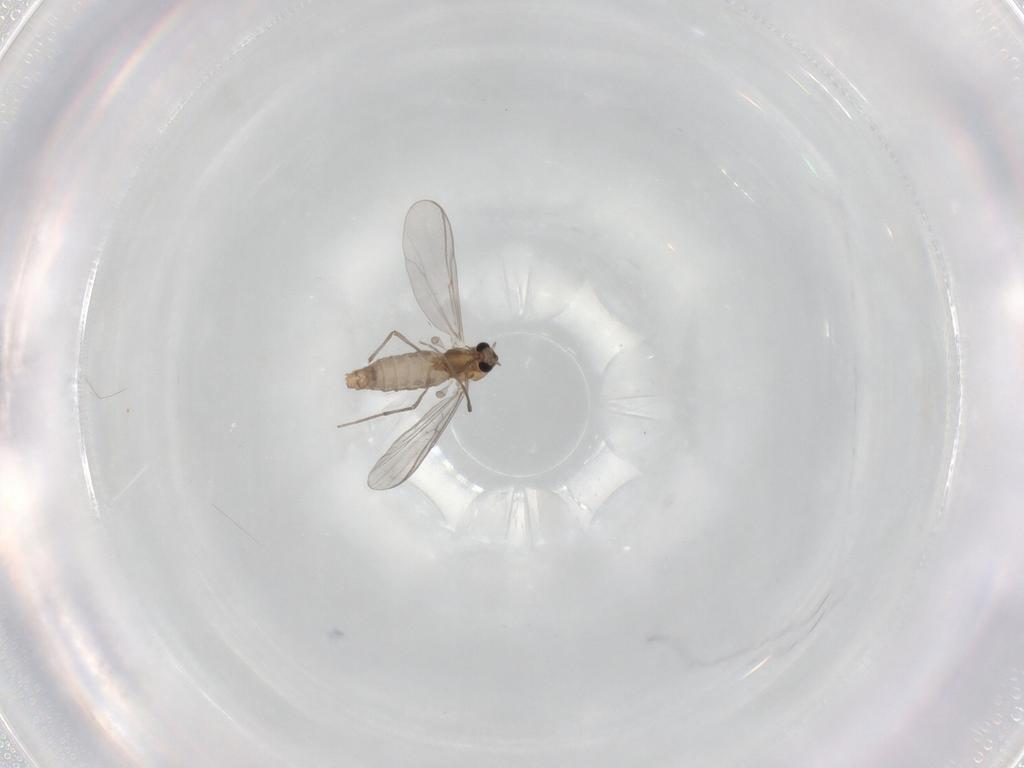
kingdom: Animalia
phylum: Arthropoda
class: Insecta
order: Diptera
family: Chironomidae
